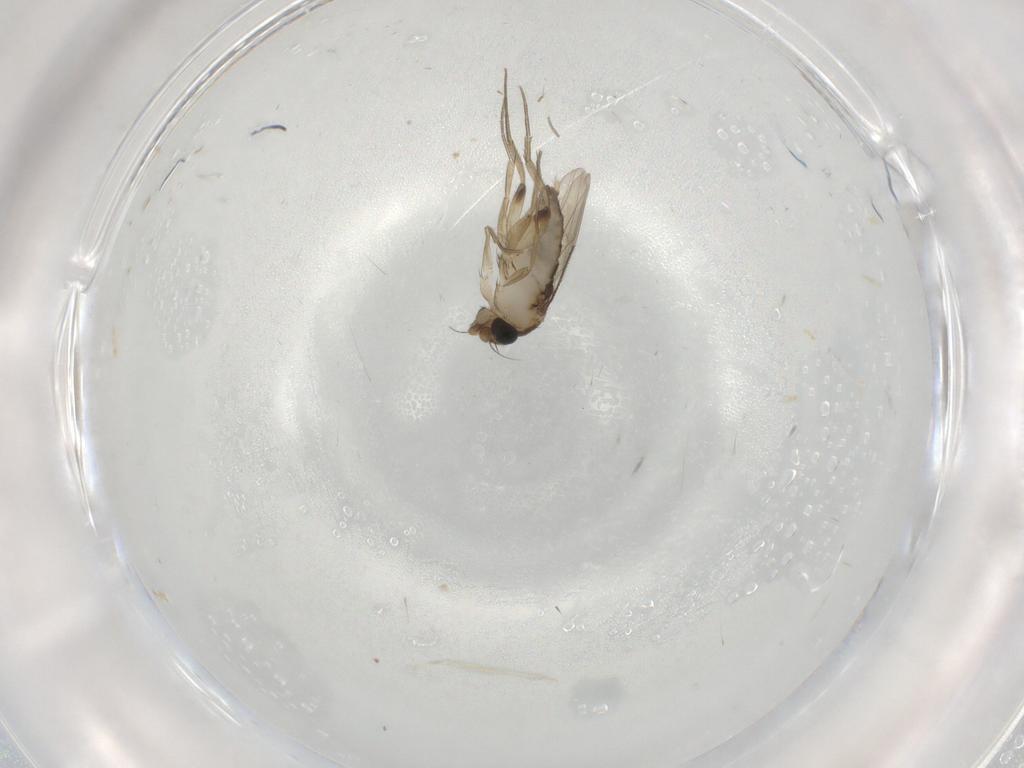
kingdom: Animalia
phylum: Arthropoda
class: Insecta
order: Diptera
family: Phoridae
